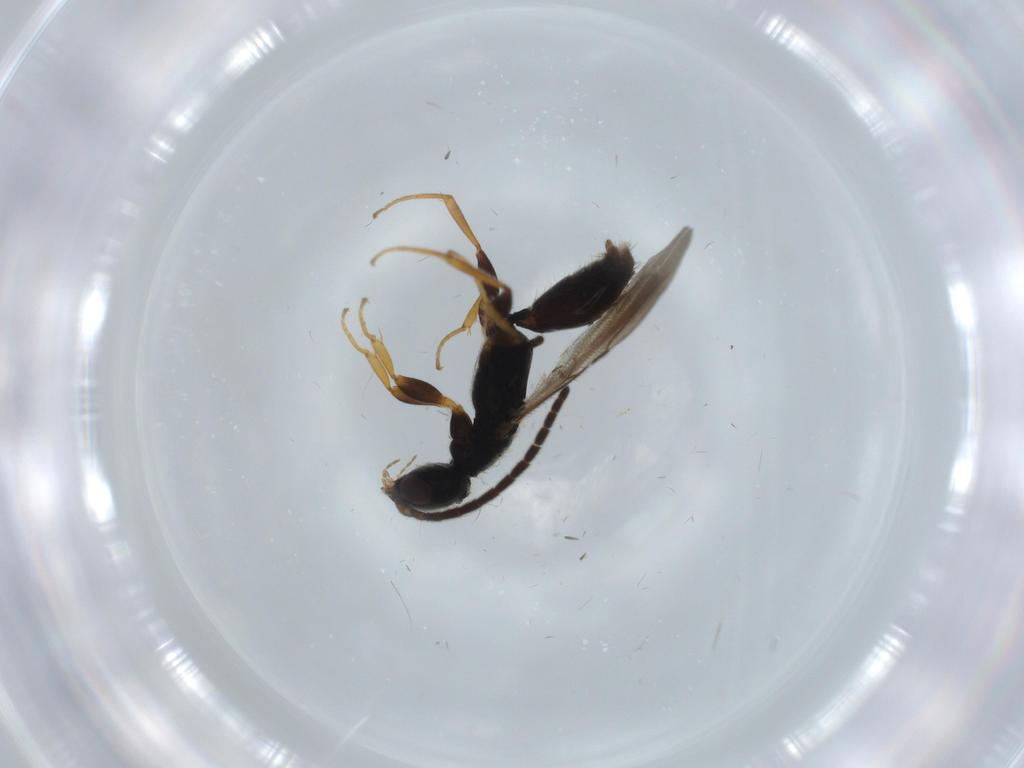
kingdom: Animalia
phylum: Arthropoda
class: Insecta
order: Hymenoptera
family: Bethylidae
